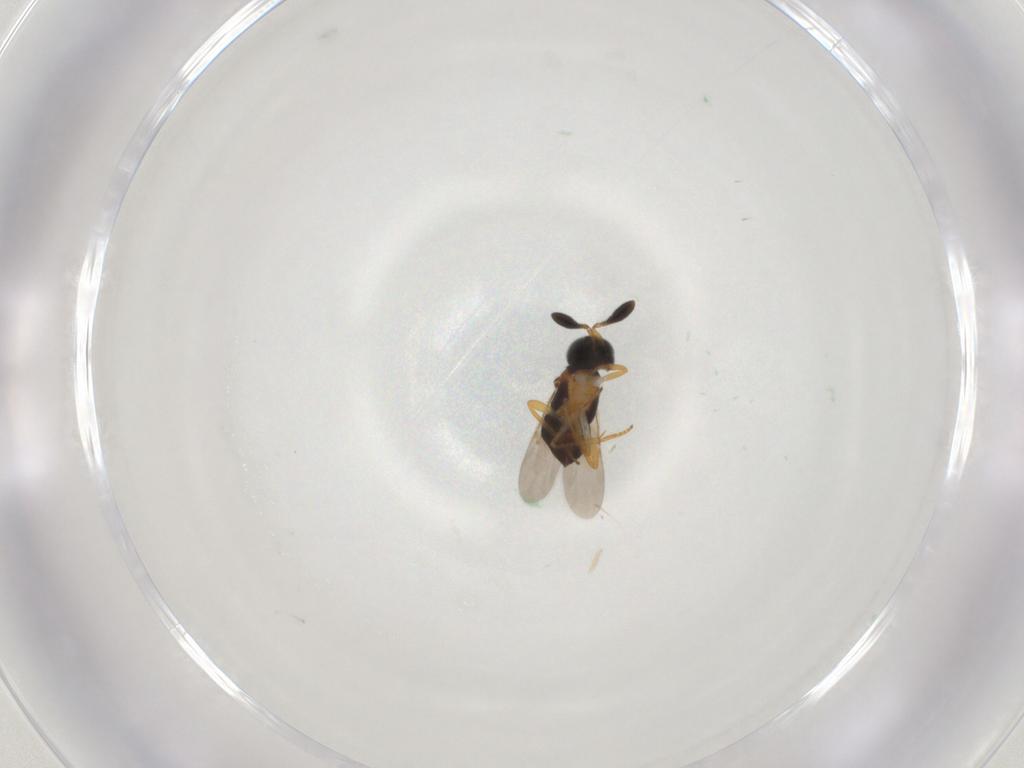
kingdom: Animalia
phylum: Arthropoda
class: Insecta
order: Hymenoptera
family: Encyrtidae
